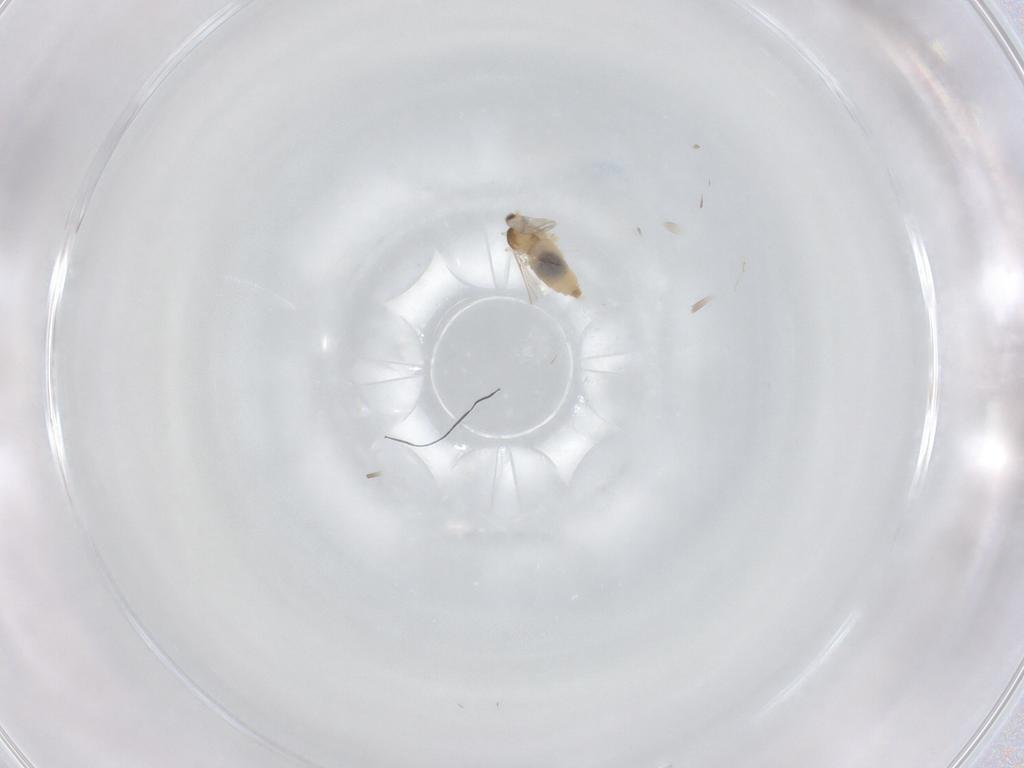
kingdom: Animalia
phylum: Arthropoda
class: Insecta
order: Diptera
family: Cecidomyiidae
